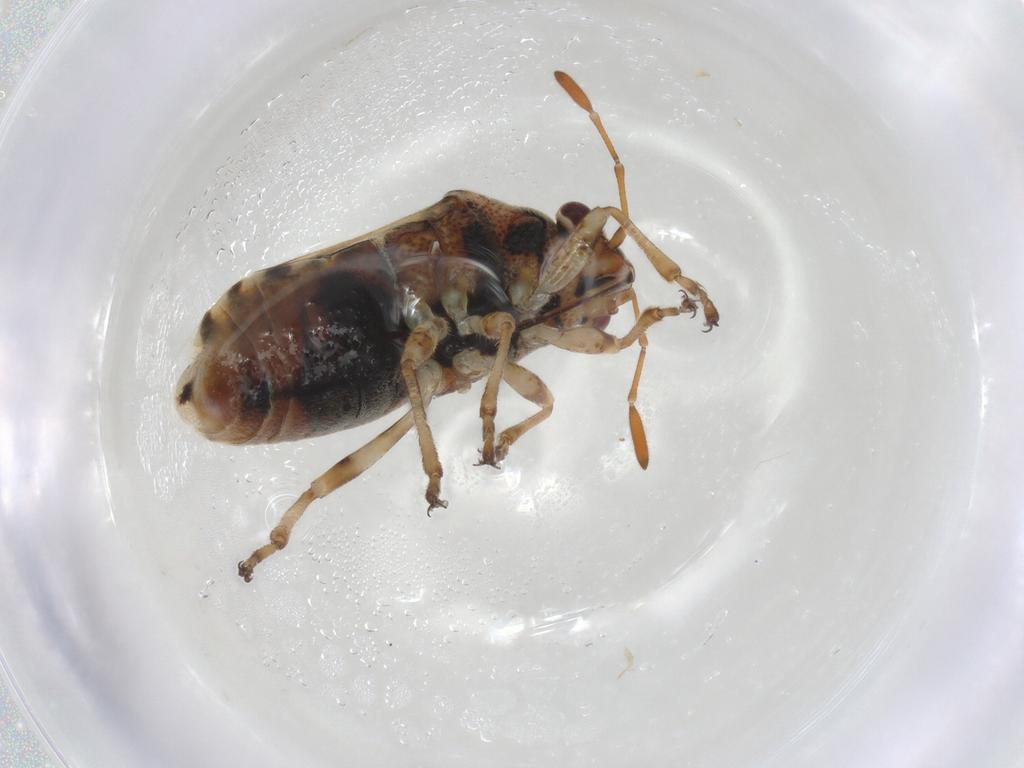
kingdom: Animalia
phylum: Arthropoda
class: Insecta
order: Hemiptera
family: Lygaeidae
